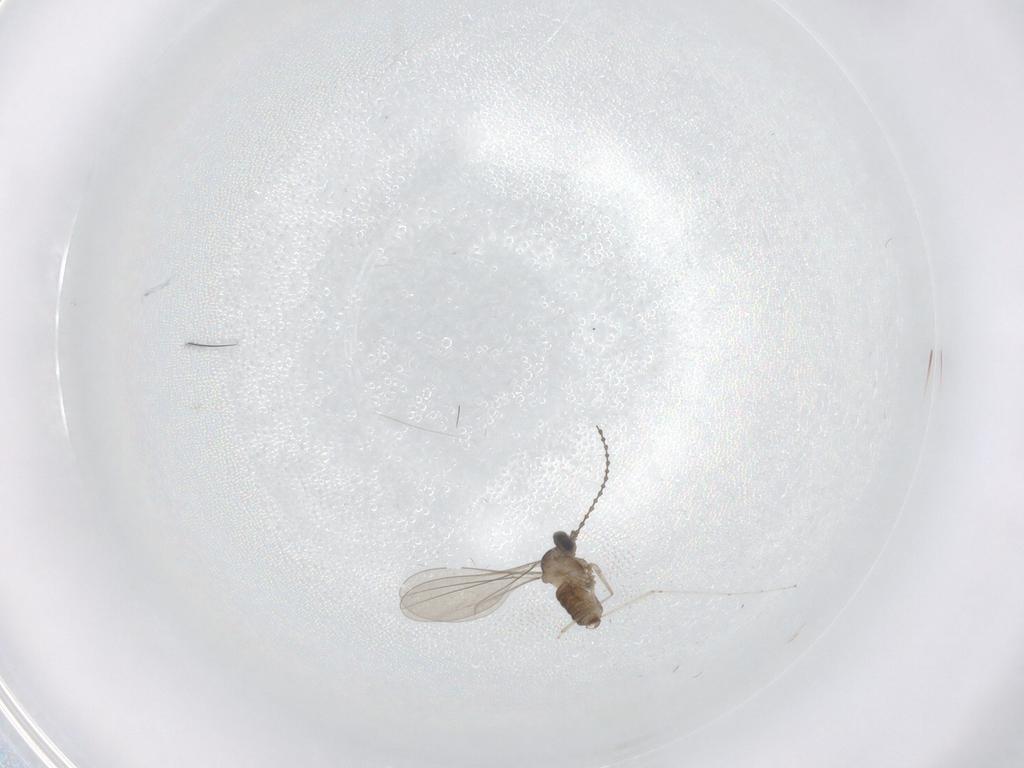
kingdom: Animalia
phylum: Arthropoda
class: Insecta
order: Diptera
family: Cecidomyiidae
